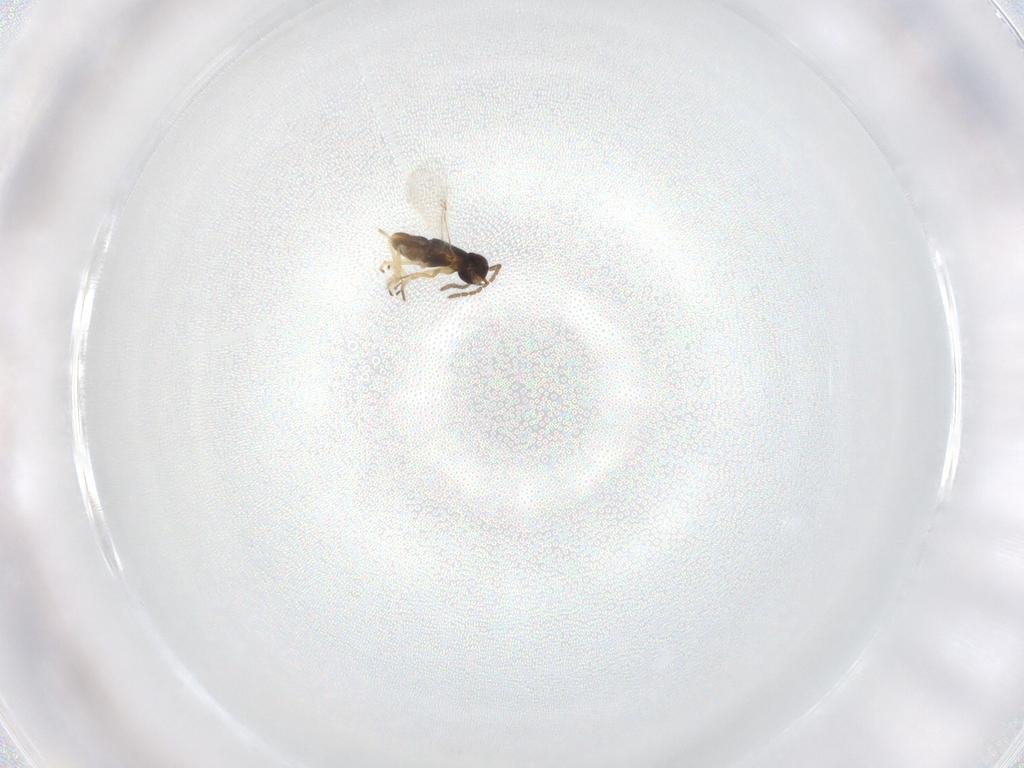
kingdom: Animalia
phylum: Arthropoda
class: Insecta
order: Hymenoptera
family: Encyrtidae
